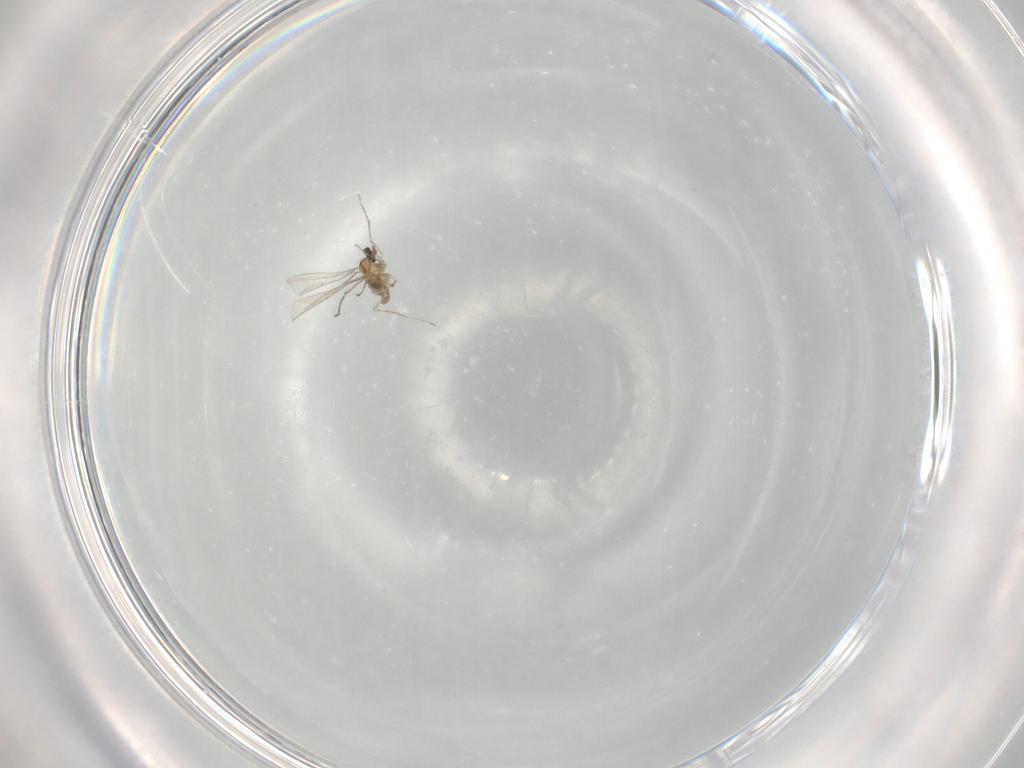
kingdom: Animalia
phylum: Arthropoda
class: Insecta
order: Diptera
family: Cecidomyiidae
